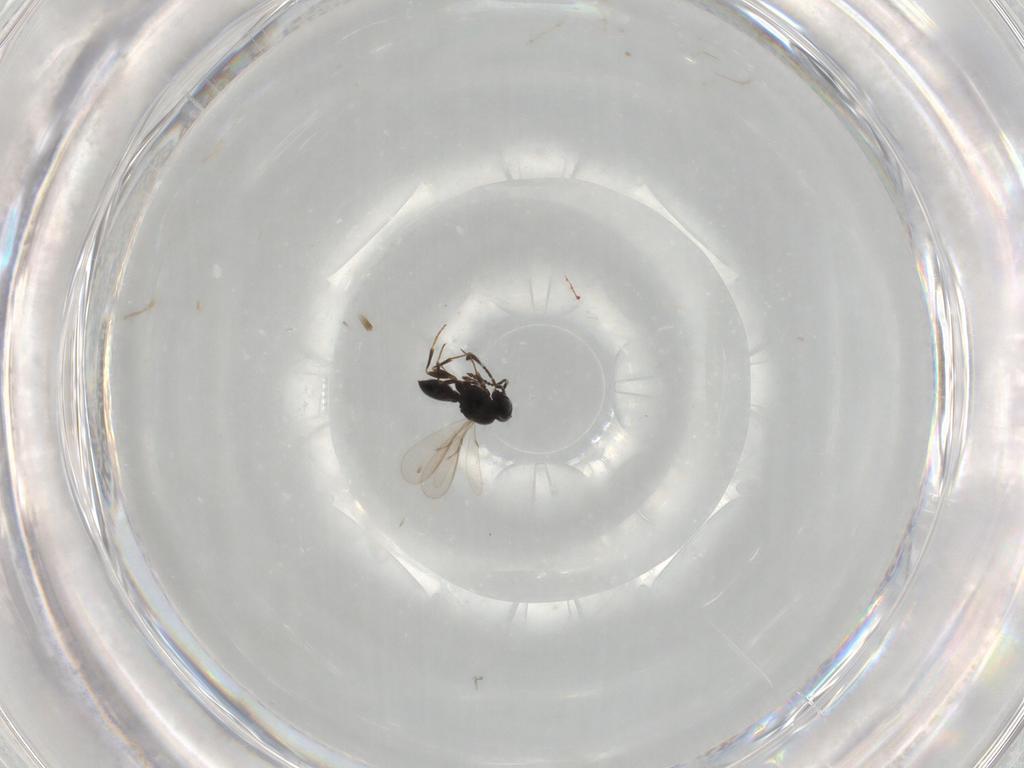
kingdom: Animalia
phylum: Arthropoda
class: Insecta
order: Hymenoptera
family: Scelionidae
